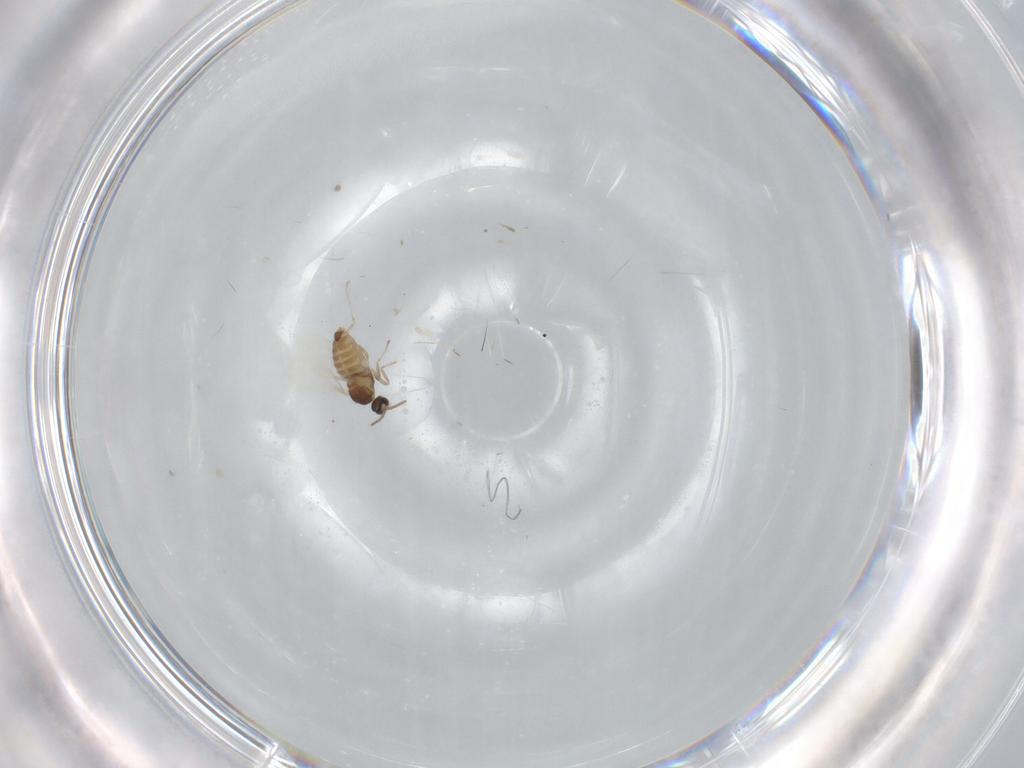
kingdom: Animalia
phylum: Arthropoda
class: Insecta
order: Diptera
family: Cecidomyiidae
